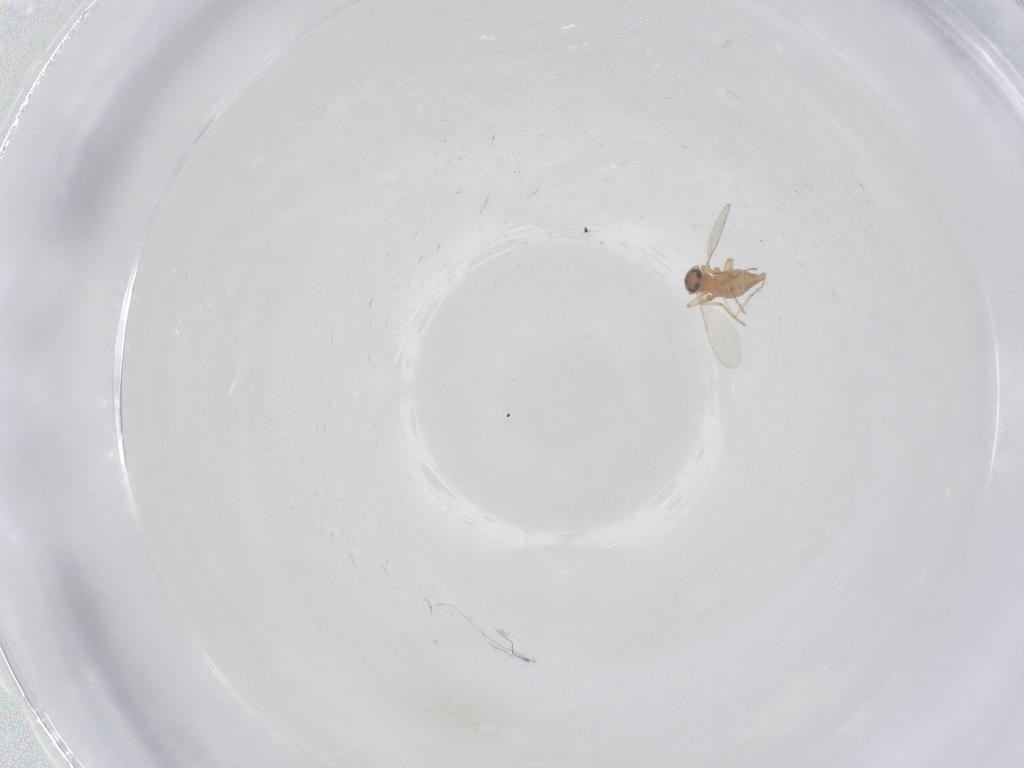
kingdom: Animalia
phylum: Arthropoda
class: Insecta
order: Diptera
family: Ceratopogonidae
